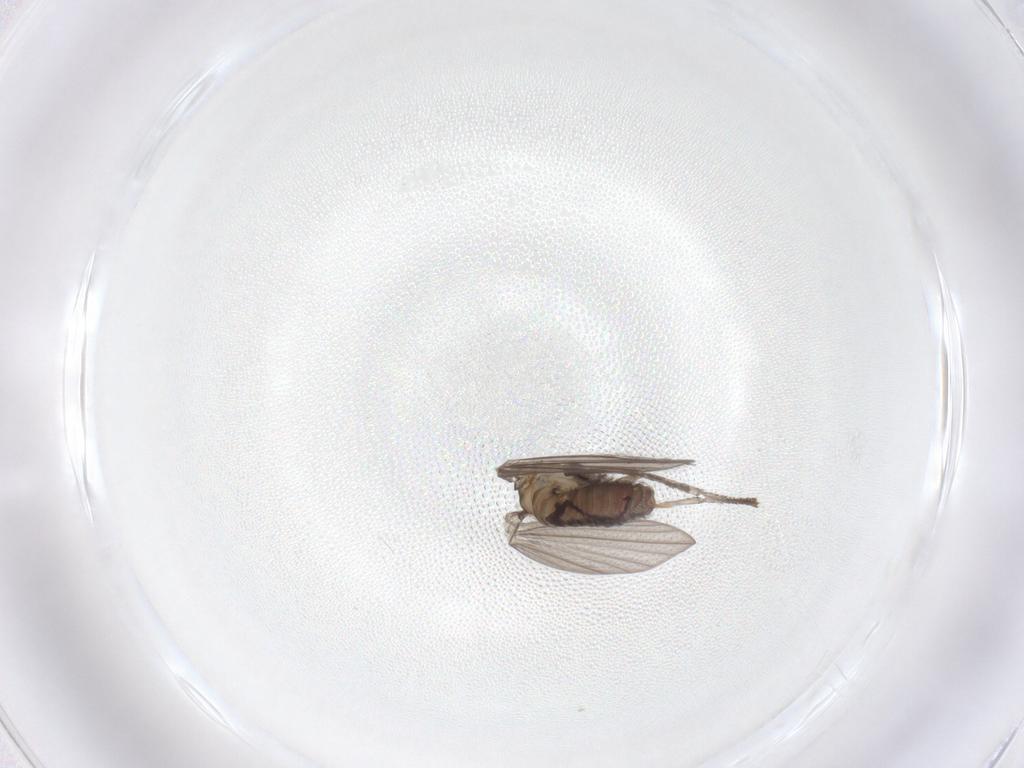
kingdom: Animalia
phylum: Arthropoda
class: Insecta
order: Diptera
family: Psychodidae
